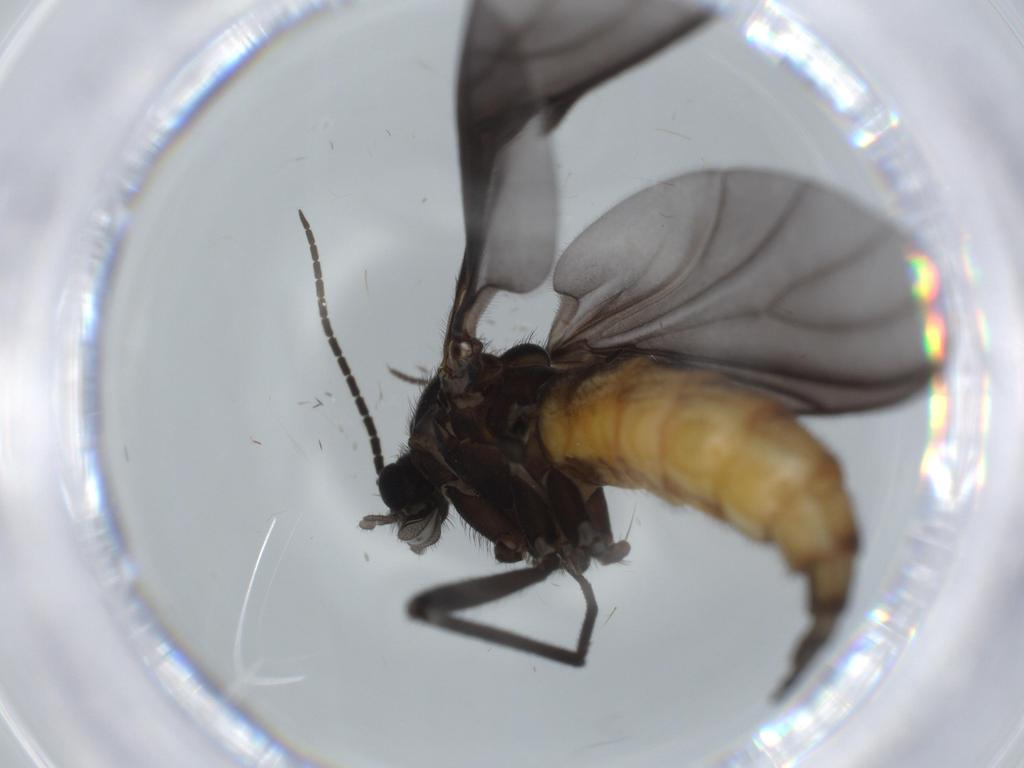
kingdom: Animalia
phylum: Arthropoda
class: Insecta
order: Diptera
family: Psychodidae
